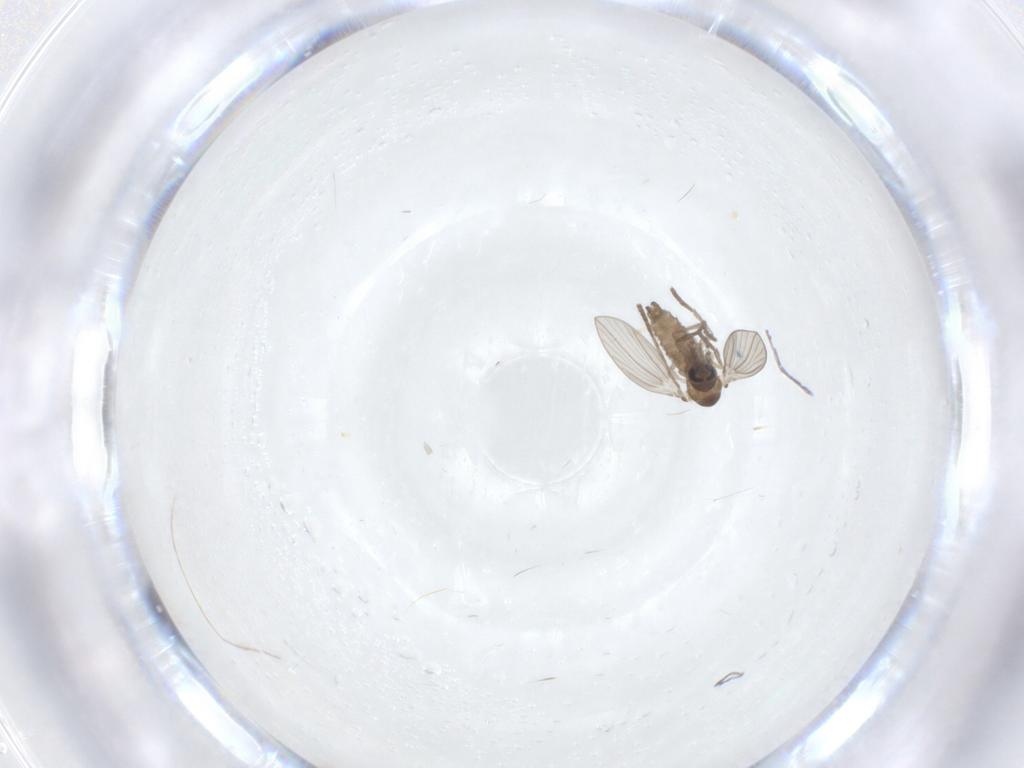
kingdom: Animalia
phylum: Arthropoda
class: Insecta
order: Diptera
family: Psychodidae
